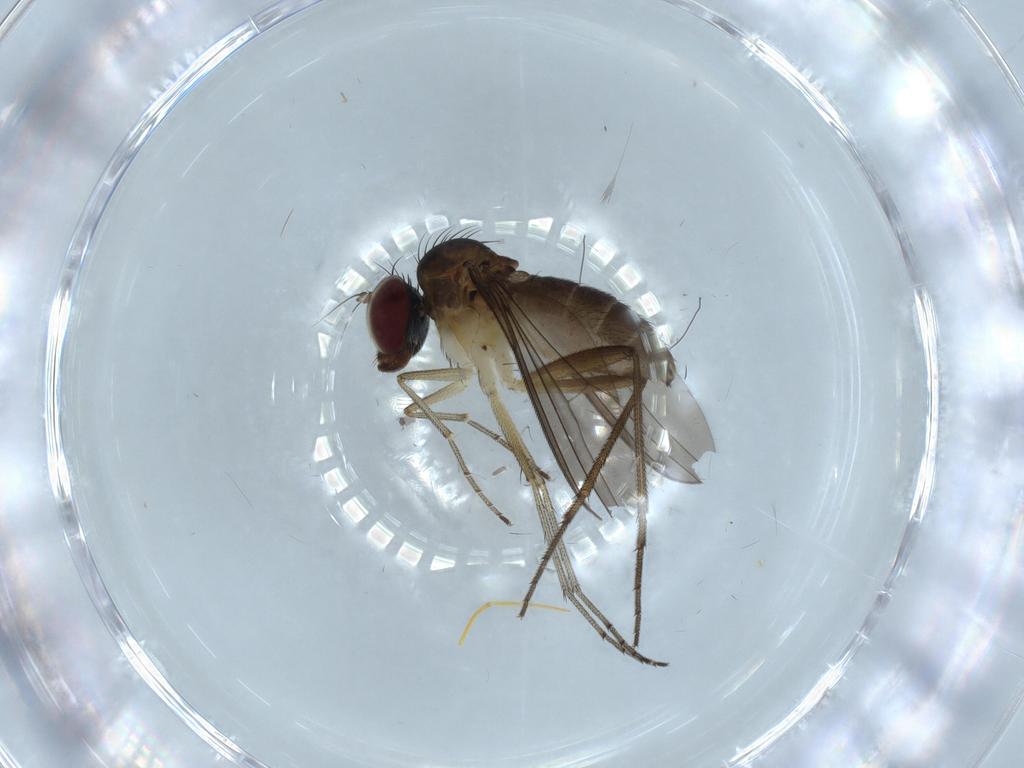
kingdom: Animalia
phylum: Arthropoda
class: Insecta
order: Diptera
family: Dolichopodidae
